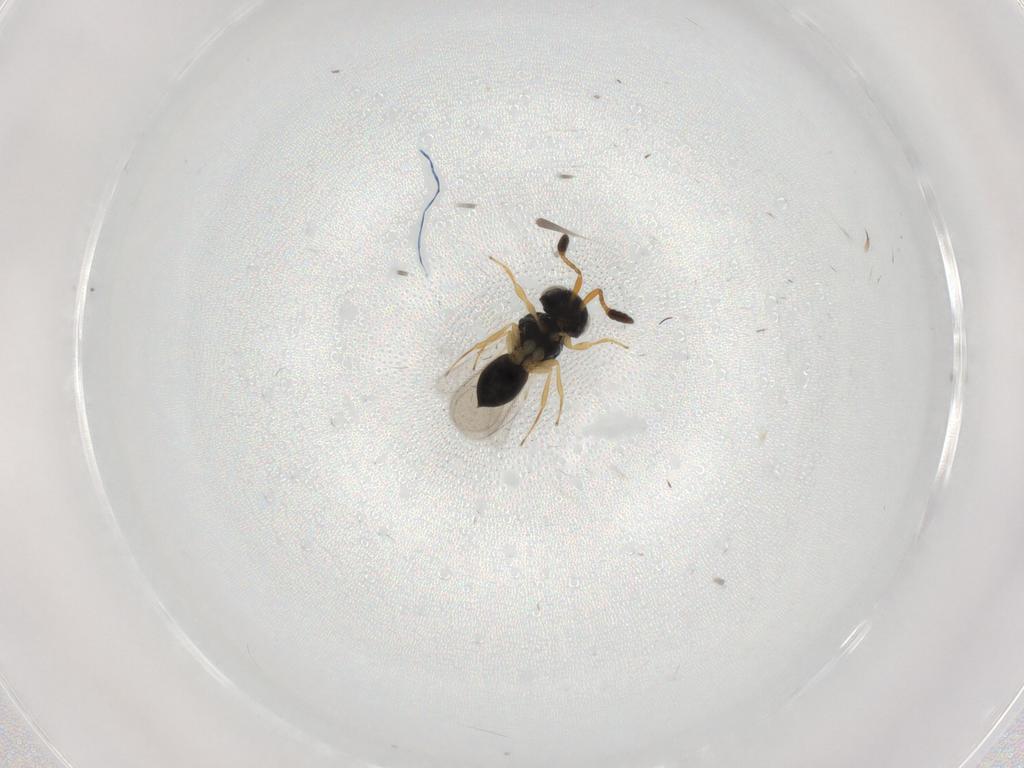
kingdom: Animalia
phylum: Arthropoda
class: Insecta
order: Hymenoptera
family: Scelionidae
